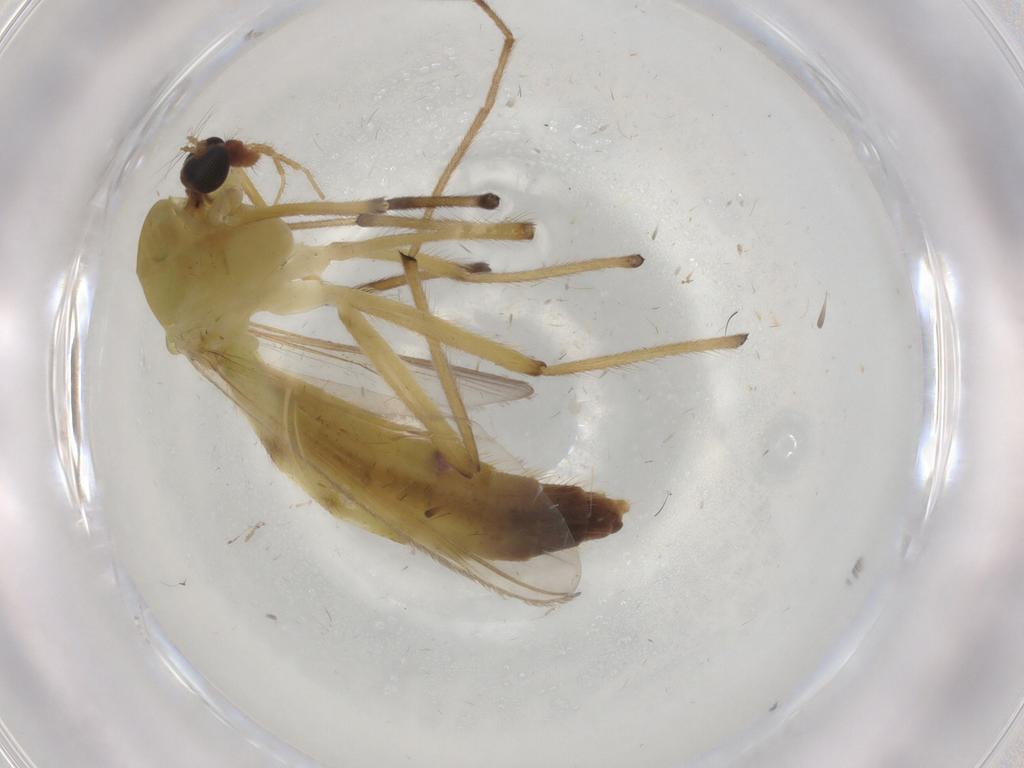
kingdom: Animalia
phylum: Arthropoda
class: Insecta
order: Diptera
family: Chironomidae
